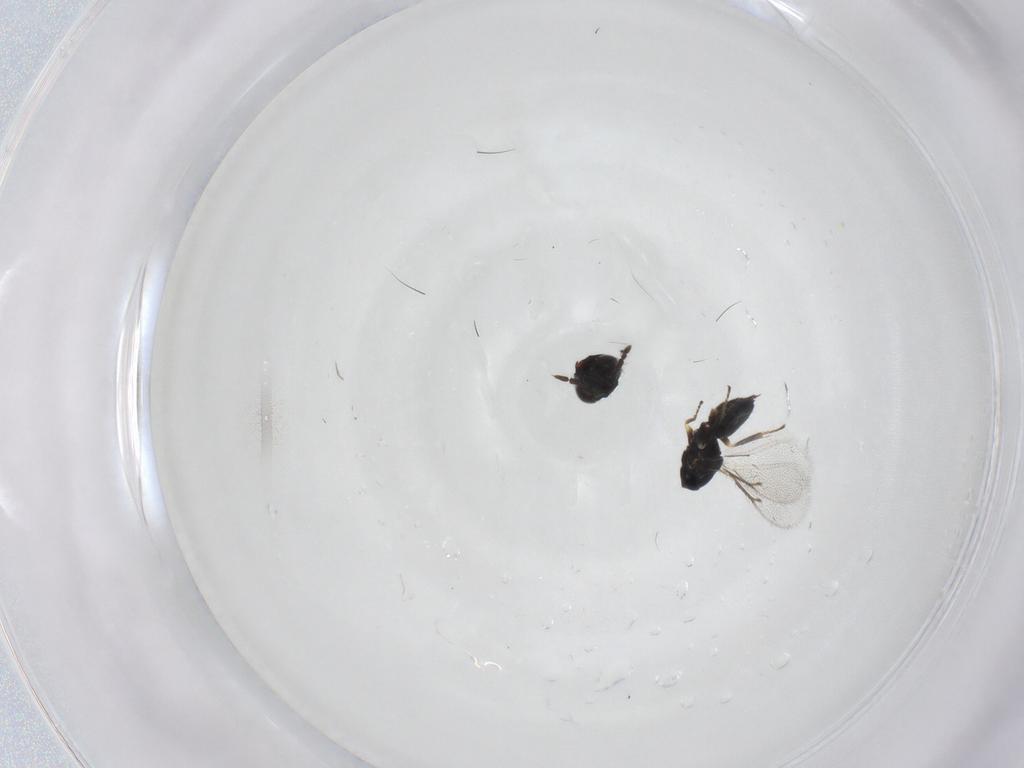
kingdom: Animalia
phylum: Arthropoda
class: Insecta
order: Hymenoptera
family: Eulophidae
